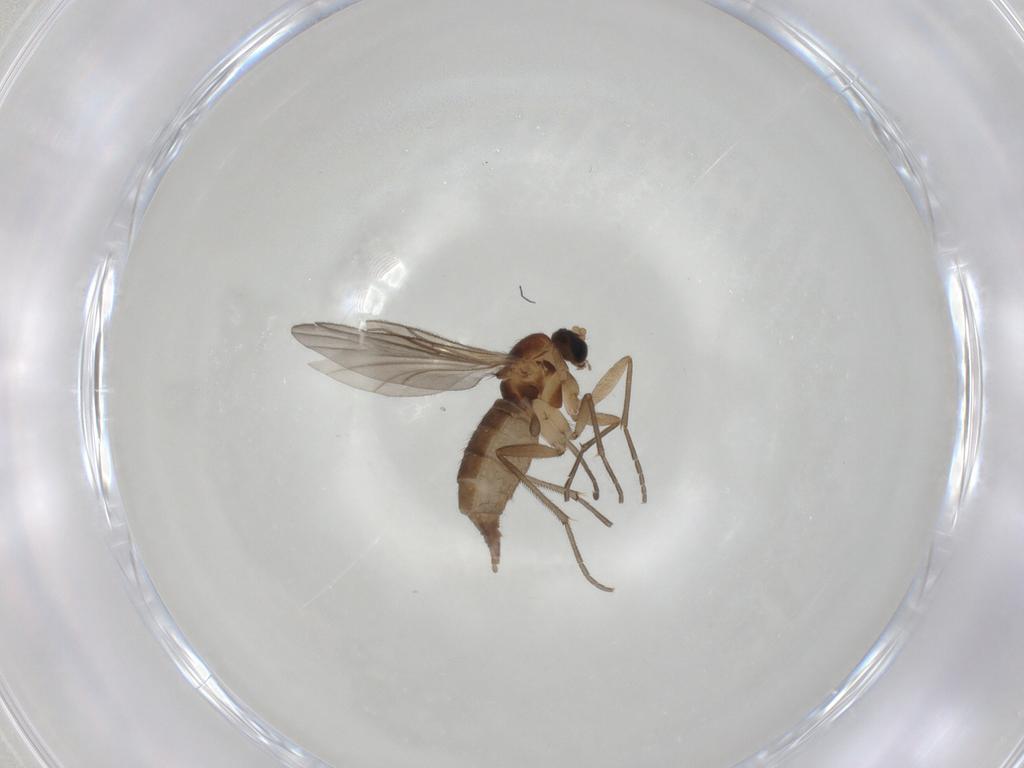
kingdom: Animalia
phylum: Arthropoda
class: Insecta
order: Diptera
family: Sciaridae
